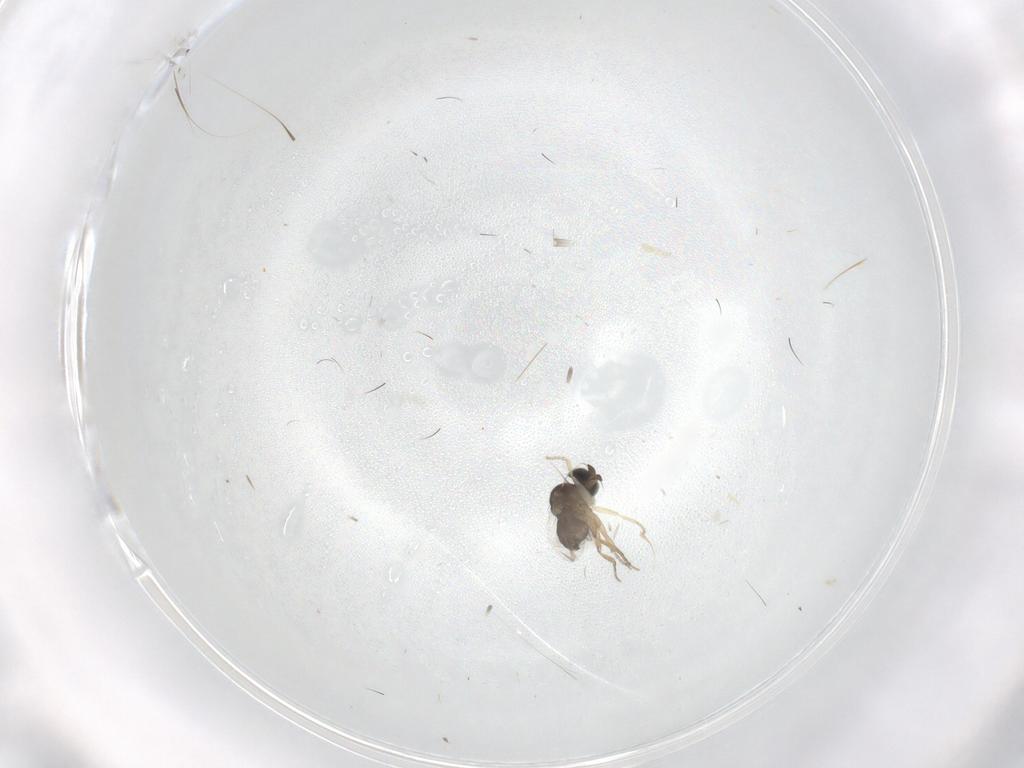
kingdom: Animalia
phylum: Arthropoda
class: Insecta
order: Diptera
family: Phoridae
